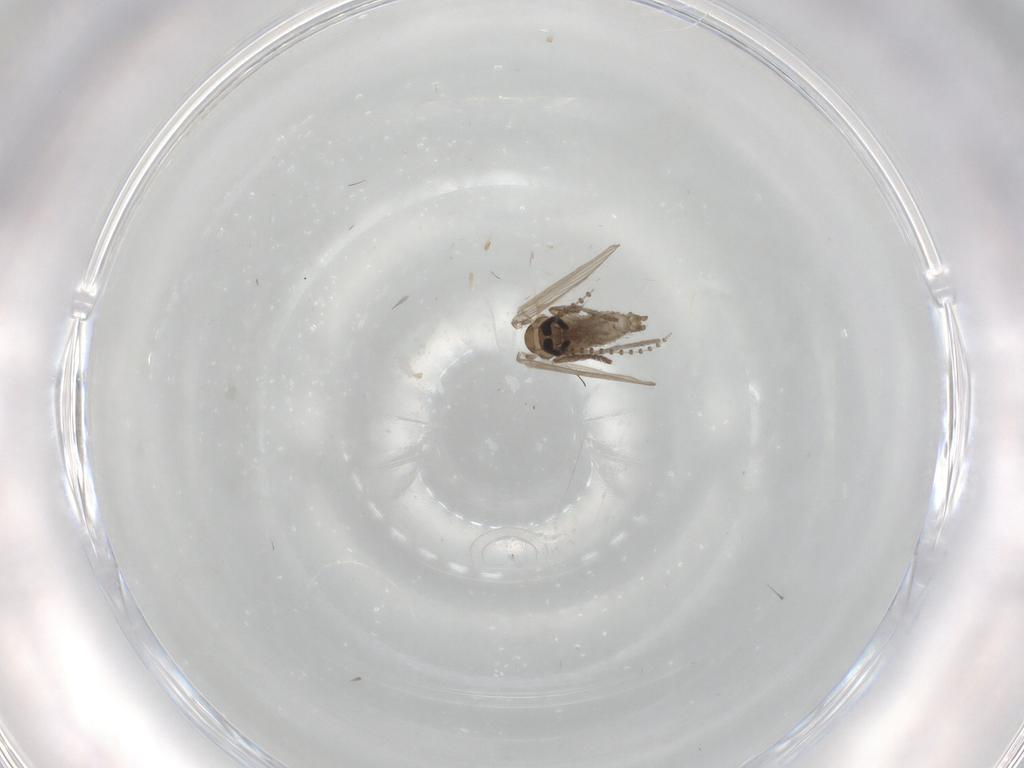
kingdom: Animalia
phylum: Arthropoda
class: Insecta
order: Diptera
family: Psychodidae
